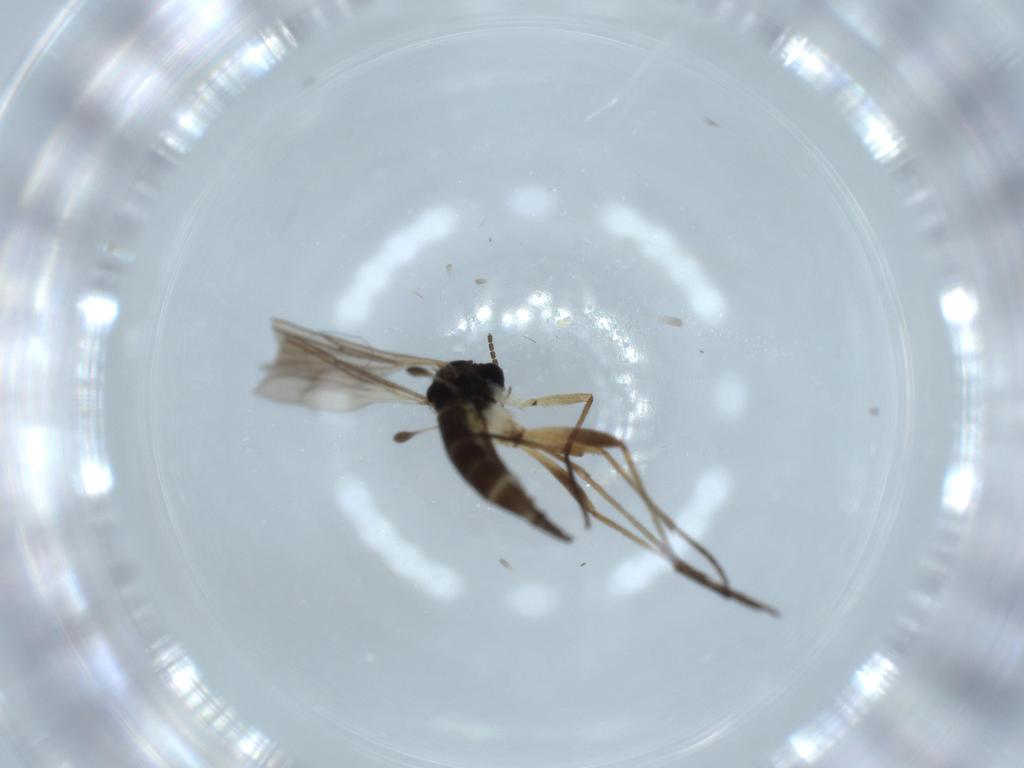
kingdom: Animalia
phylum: Arthropoda
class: Insecta
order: Diptera
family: Sciaridae
